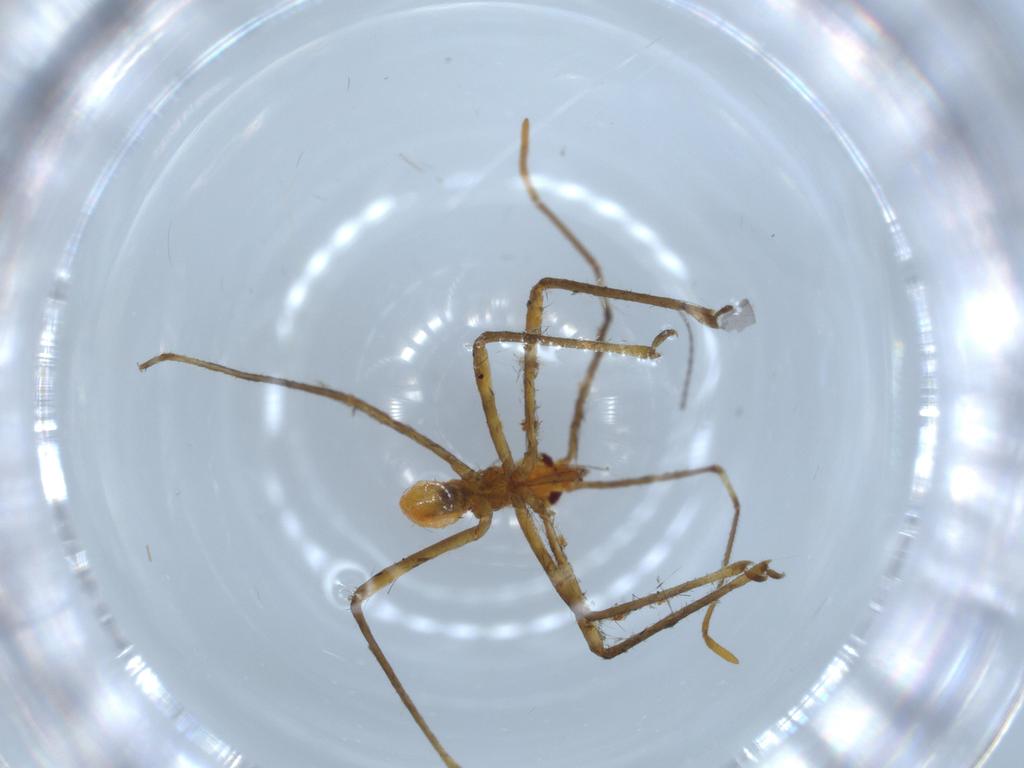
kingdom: Animalia
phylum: Arthropoda
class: Insecta
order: Hemiptera
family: Reduviidae
